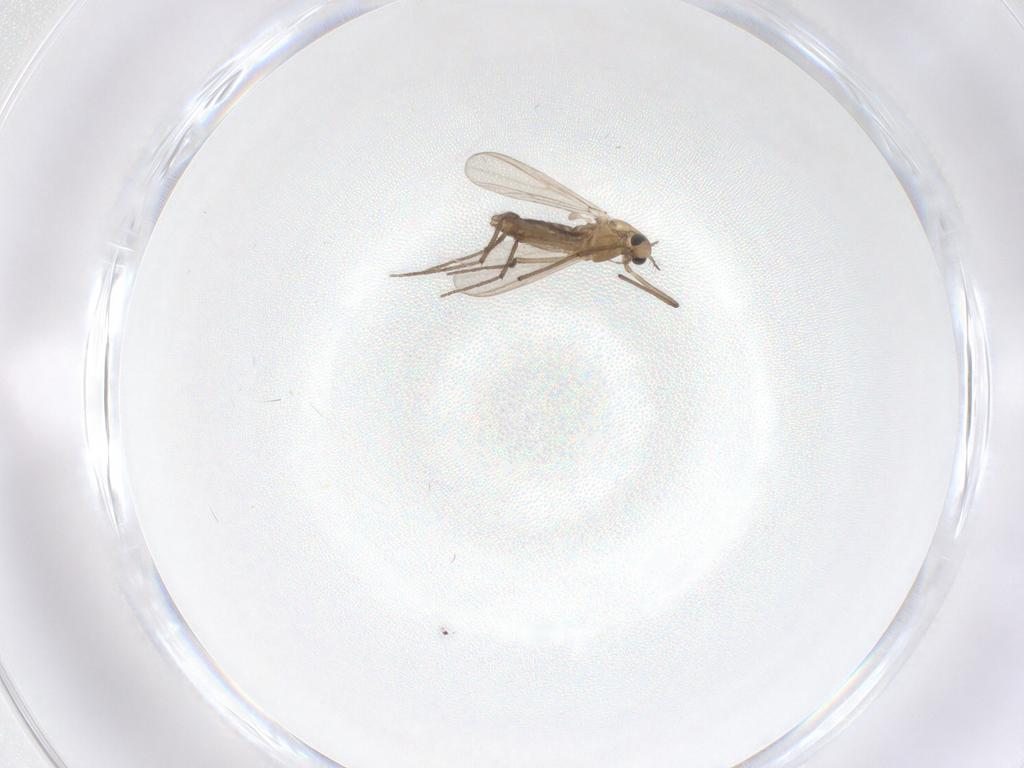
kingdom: Animalia
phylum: Arthropoda
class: Insecta
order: Diptera
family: Chironomidae
